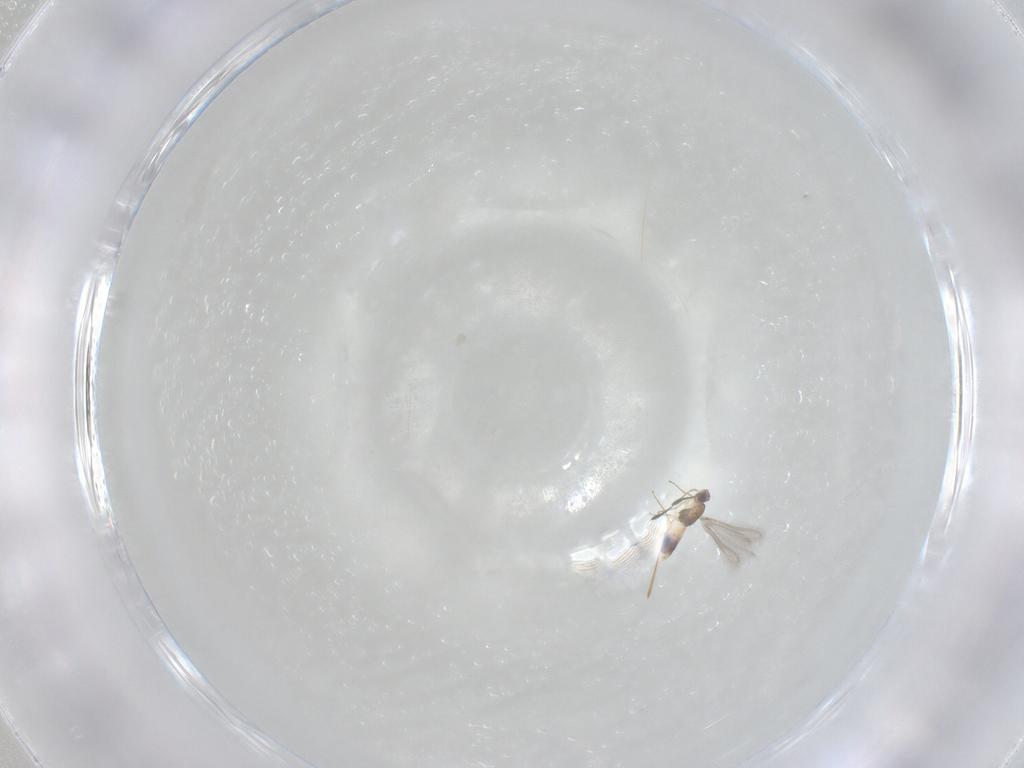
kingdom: Animalia
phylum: Arthropoda
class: Insecta
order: Hymenoptera
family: Mymaridae
